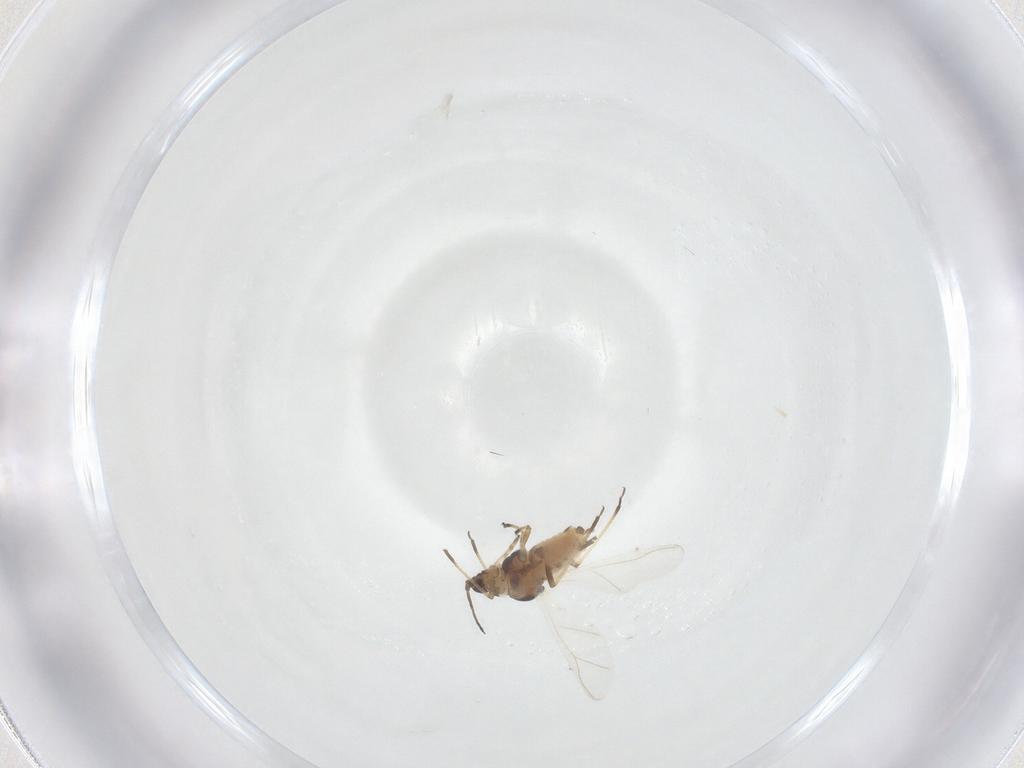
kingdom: Animalia
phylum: Arthropoda
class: Insecta
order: Hemiptera
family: Aphididae
